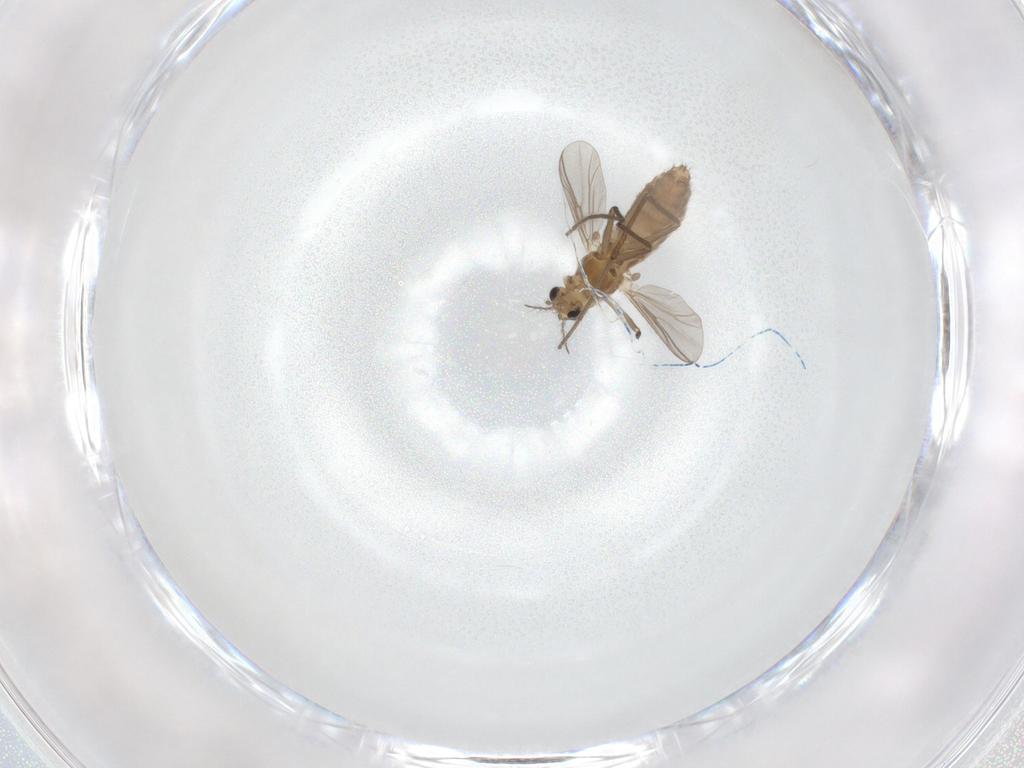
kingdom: Animalia
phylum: Arthropoda
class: Insecta
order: Diptera
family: Chironomidae
